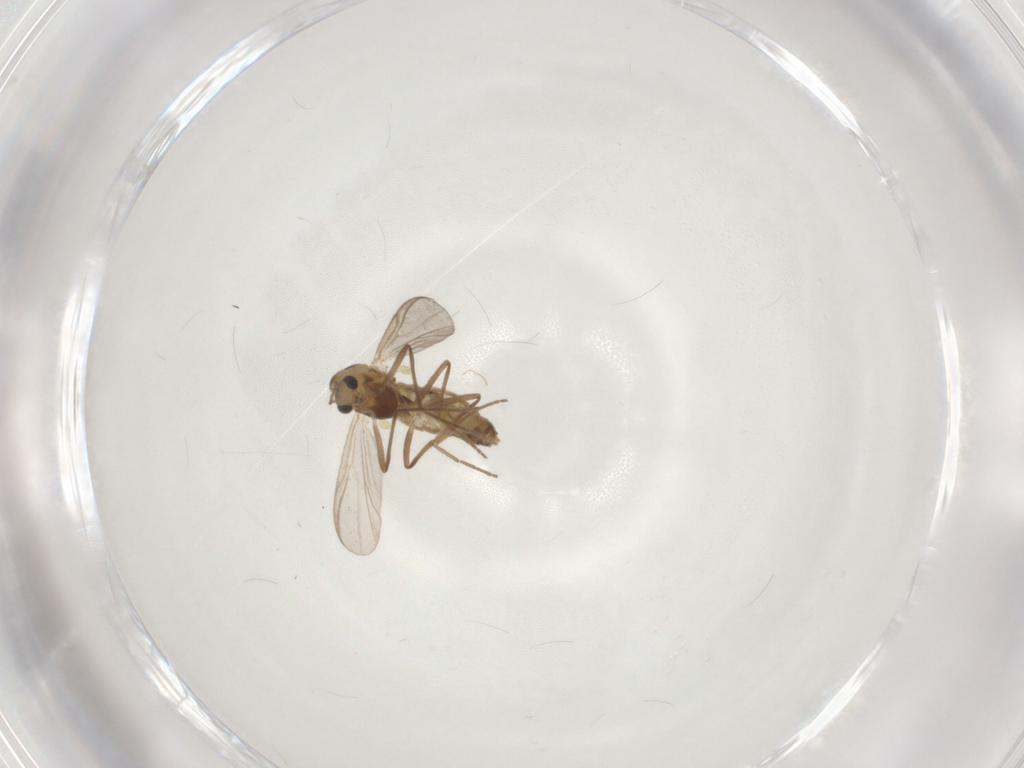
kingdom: Animalia
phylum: Arthropoda
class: Insecta
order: Diptera
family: Chironomidae
